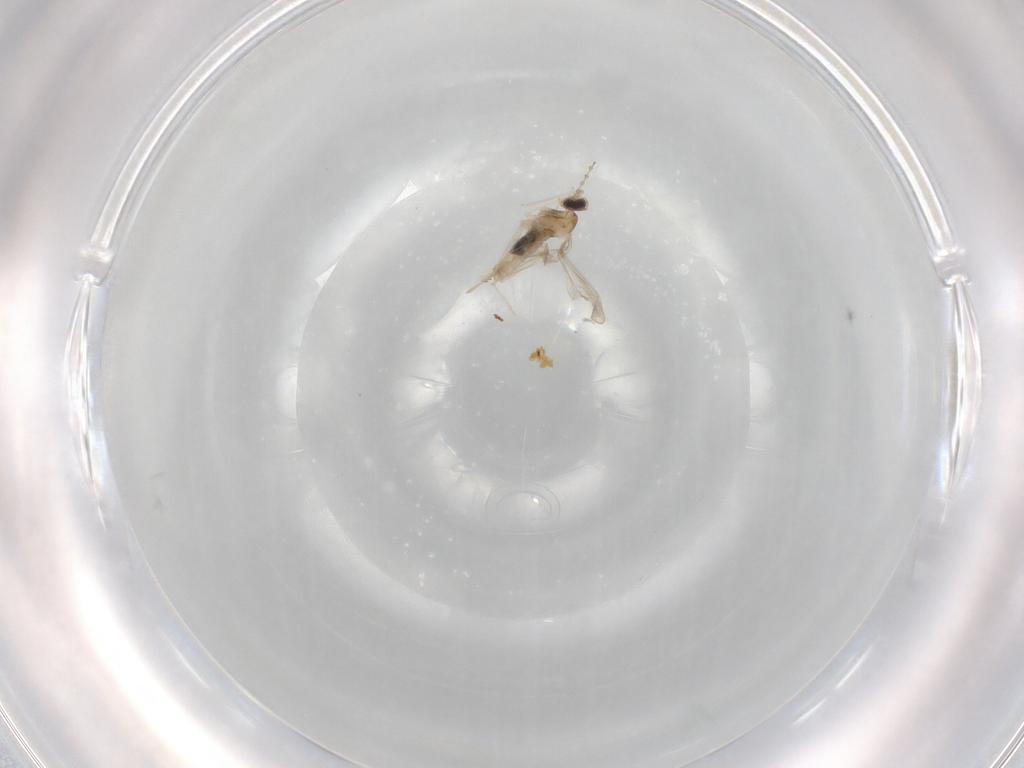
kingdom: Animalia
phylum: Arthropoda
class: Insecta
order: Diptera
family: Cecidomyiidae
